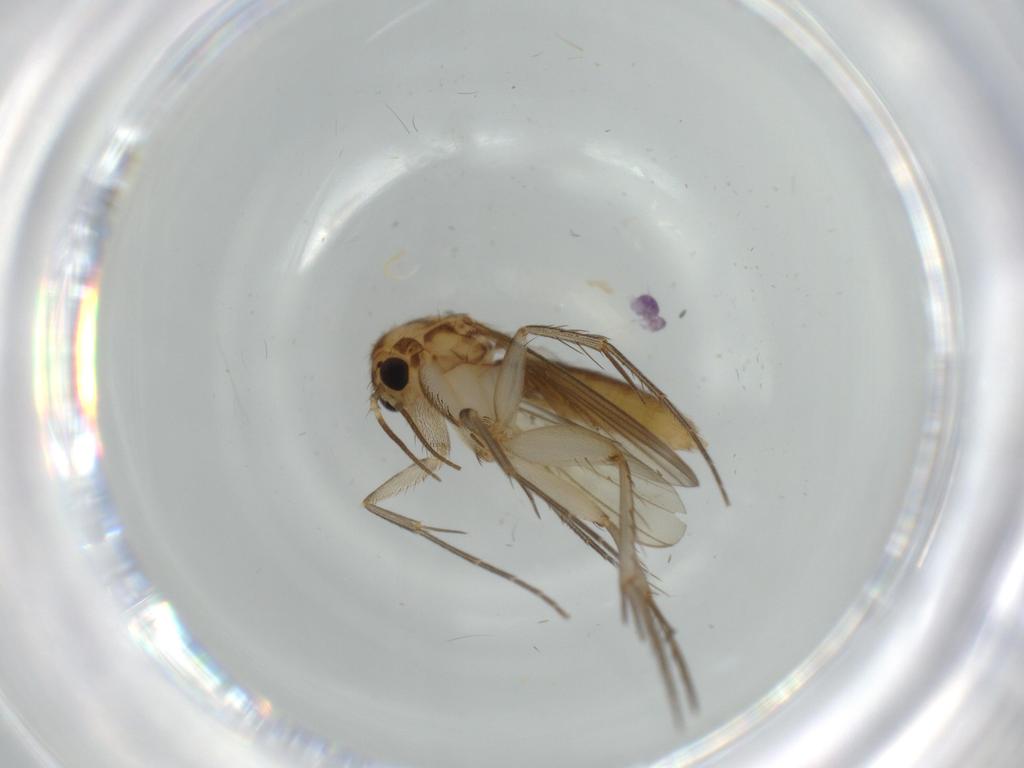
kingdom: Animalia
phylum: Arthropoda
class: Insecta
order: Diptera
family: Mycetophilidae
